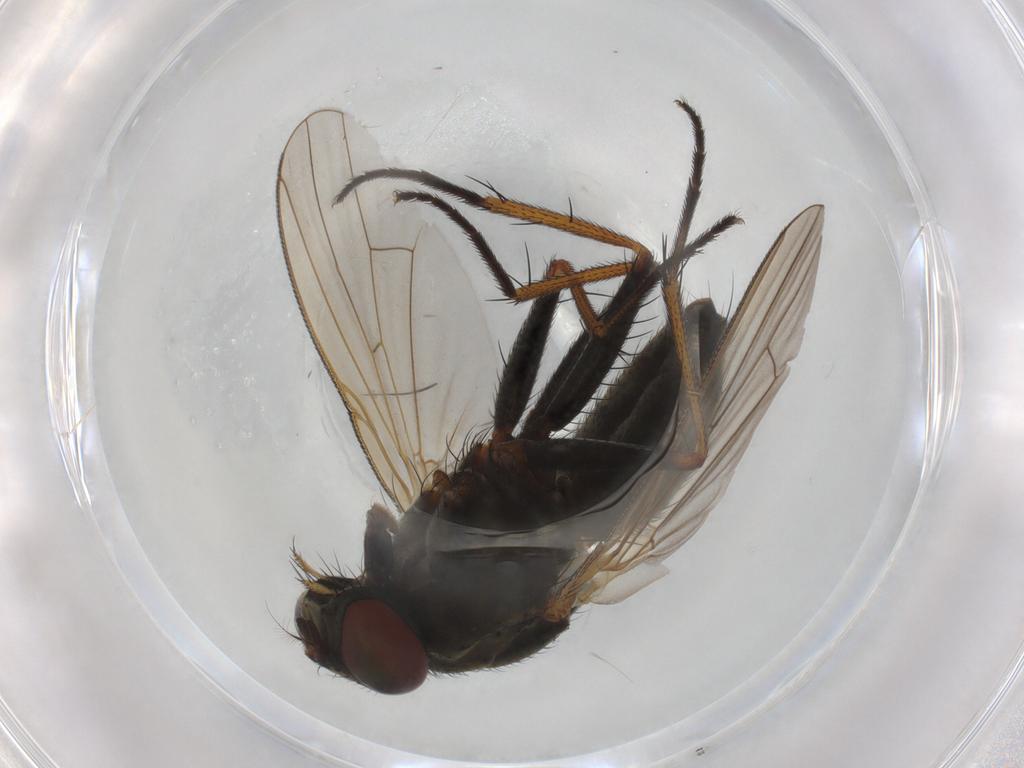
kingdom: Animalia
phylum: Arthropoda
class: Insecta
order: Diptera
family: Muscidae
